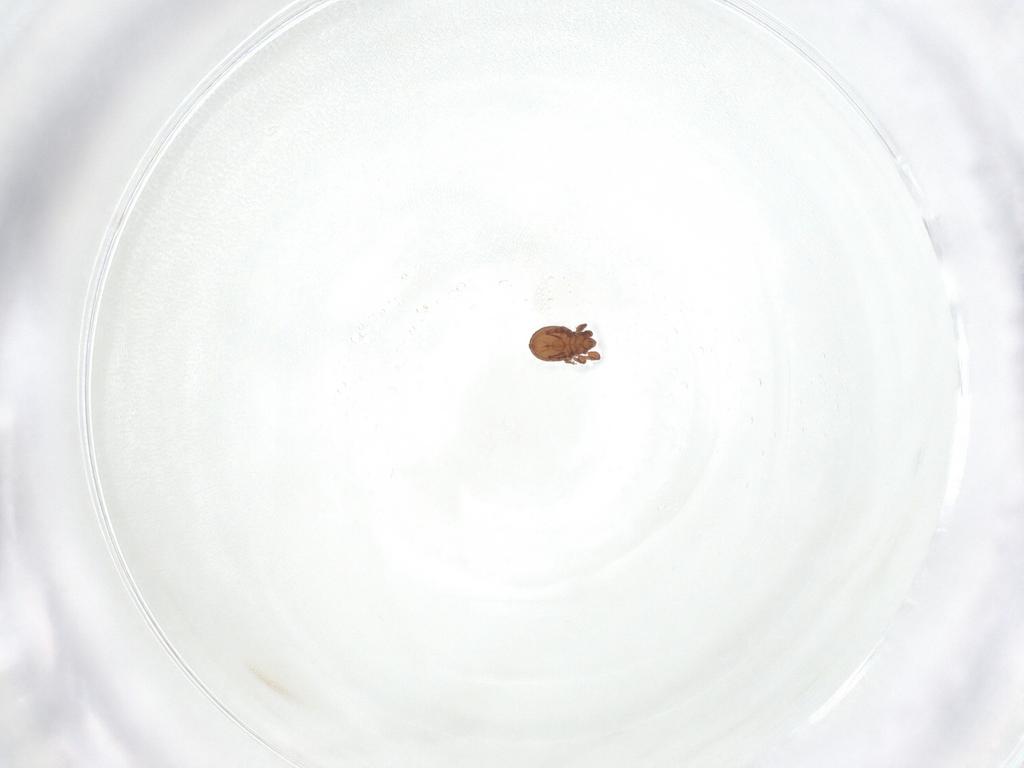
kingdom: Animalia
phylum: Arthropoda
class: Arachnida
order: Sarcoptiformes
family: Eremaeidae
